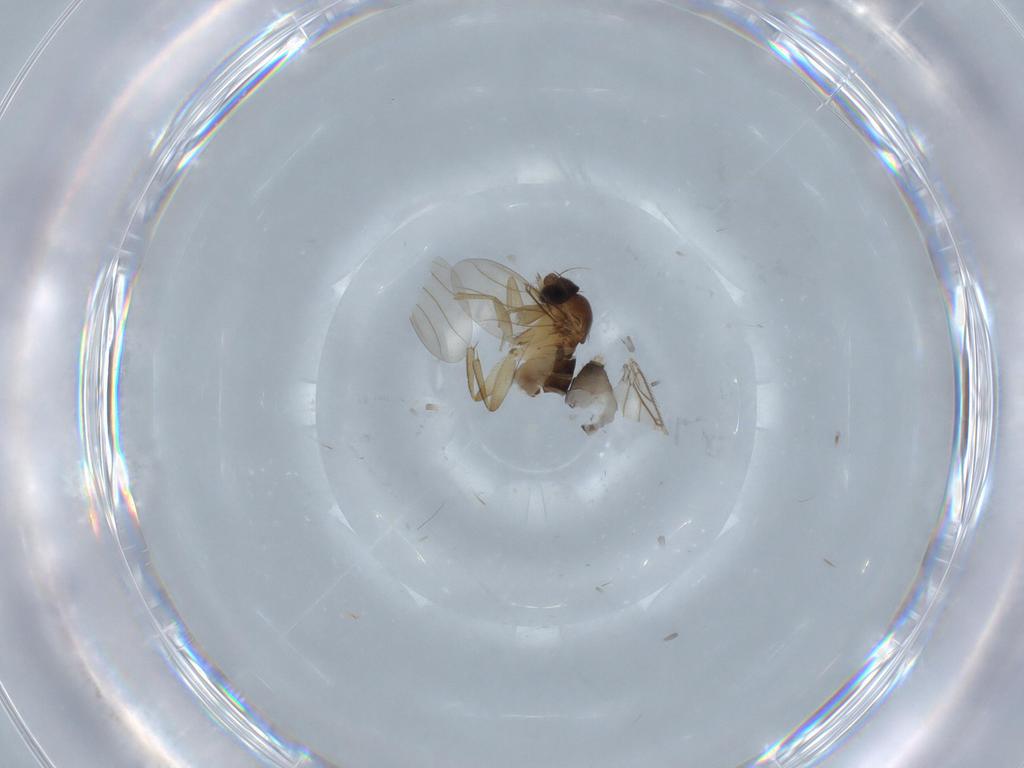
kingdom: Animalia
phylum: Arthropoda
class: Insecta
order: Diptera
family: Phoridae
